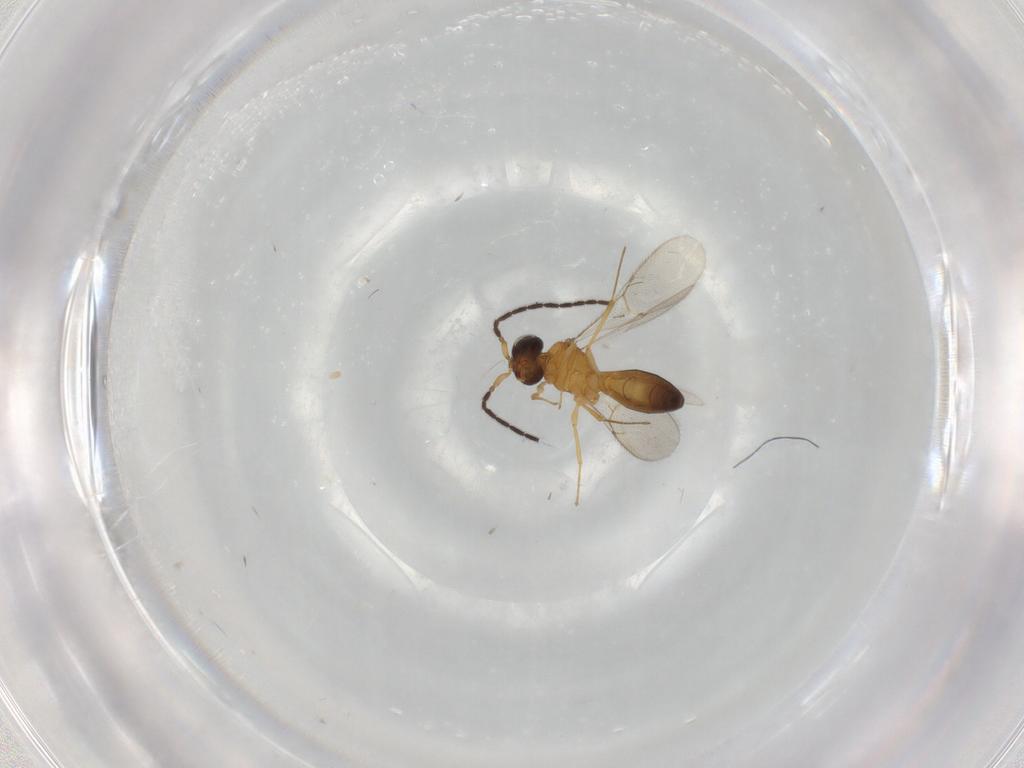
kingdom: Animalia
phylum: Arthropoda
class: Insecta
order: Hymenoptera
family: Scelionidae
